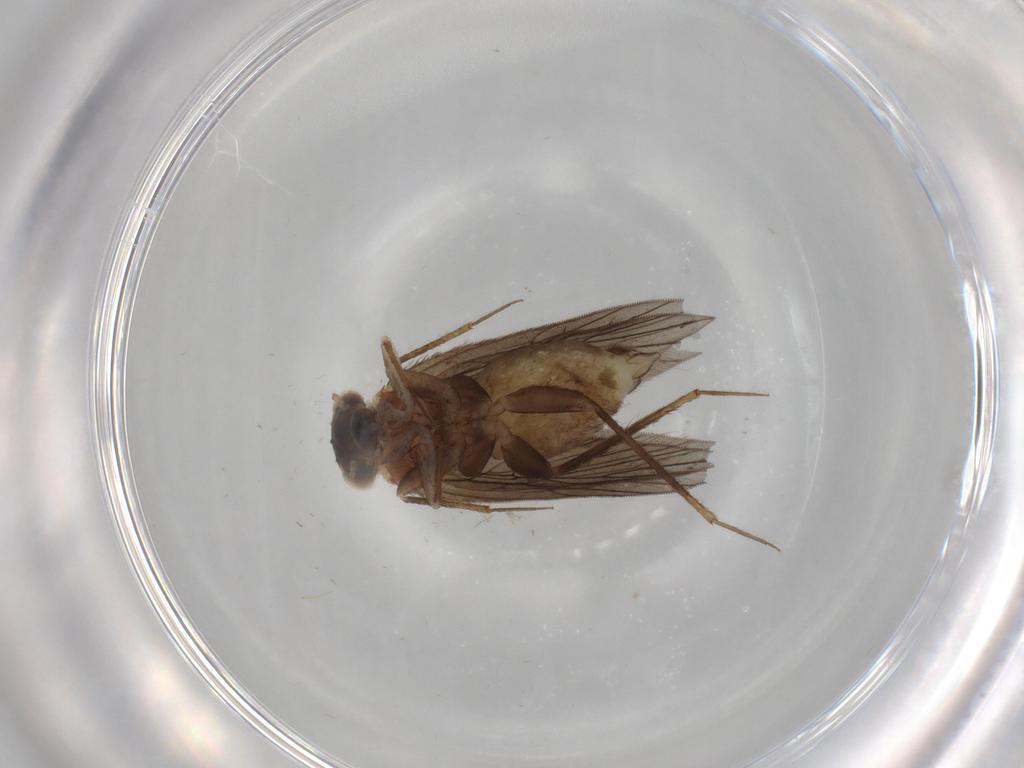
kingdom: Animalia
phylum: Arthropoda
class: Insecta
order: Psocodea
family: Lepidopsocidae
